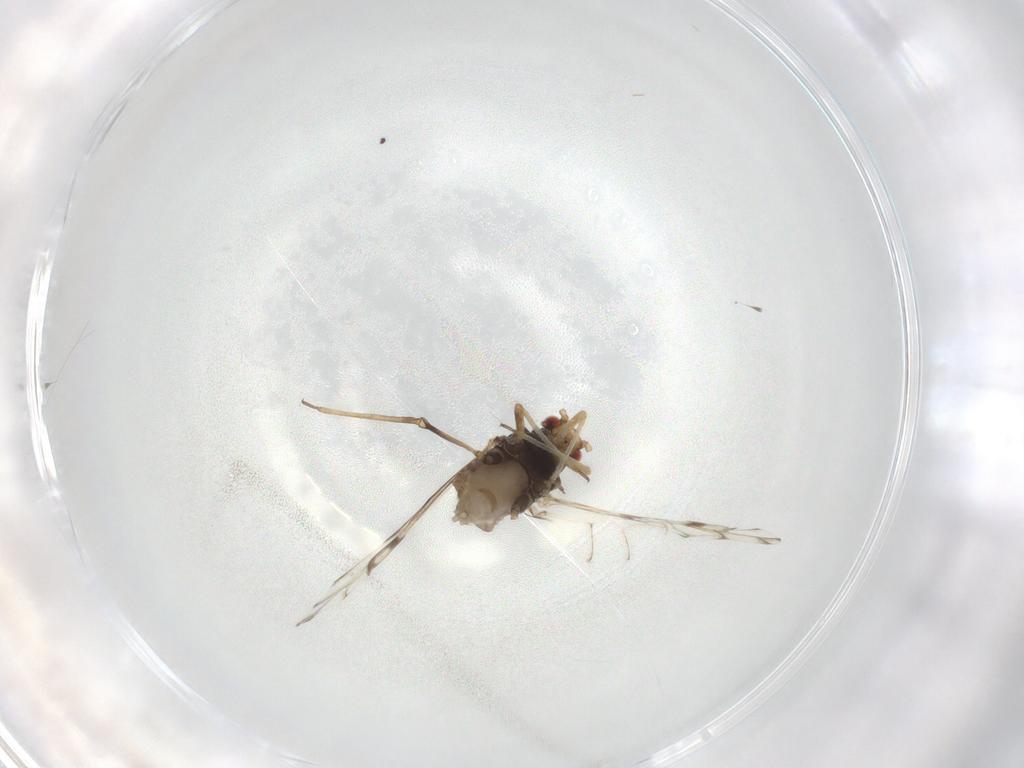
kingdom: Animalia
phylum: Arthropoda
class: Insecta
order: Hemiptera
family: Aphididae
